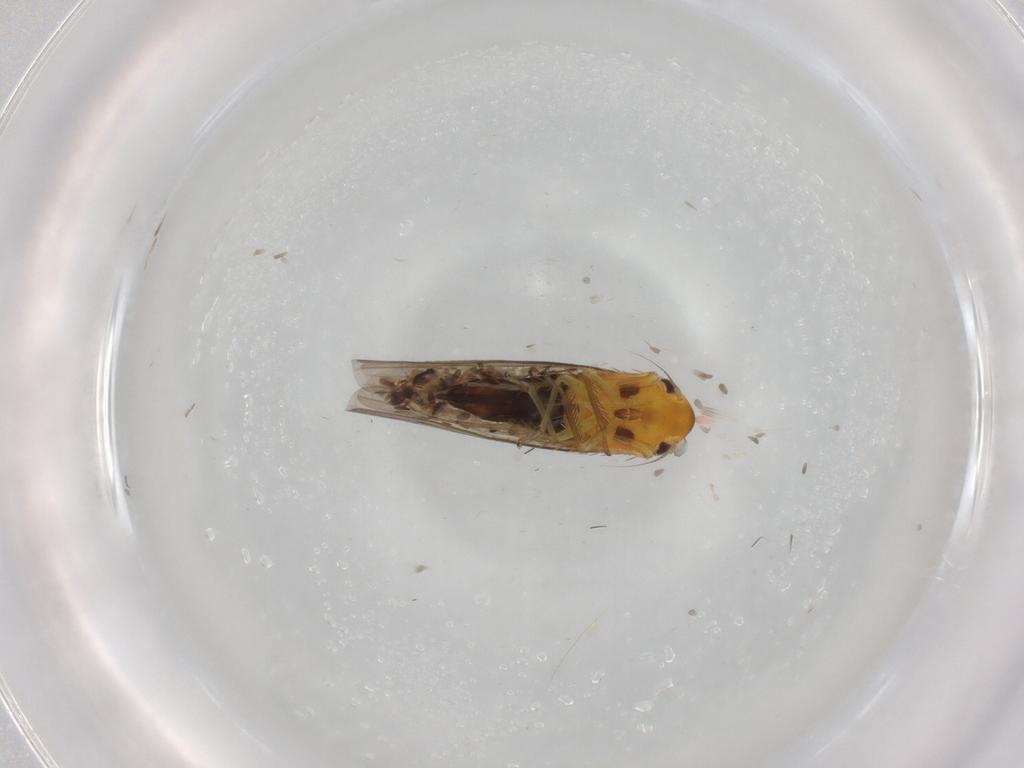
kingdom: Animalia
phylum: Arthropoda
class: Insecta
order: Hemiptera
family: Cicadellidae
